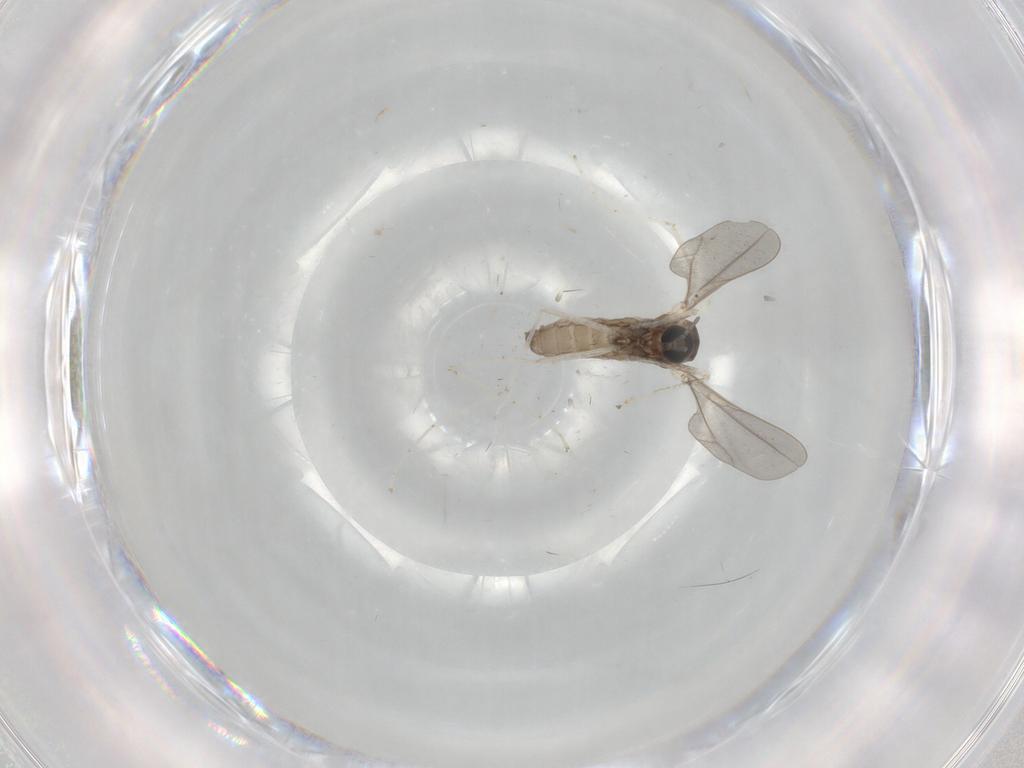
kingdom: Animalia
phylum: Arthropoda
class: Insecta
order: Diptera
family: Cecidomyiidae
